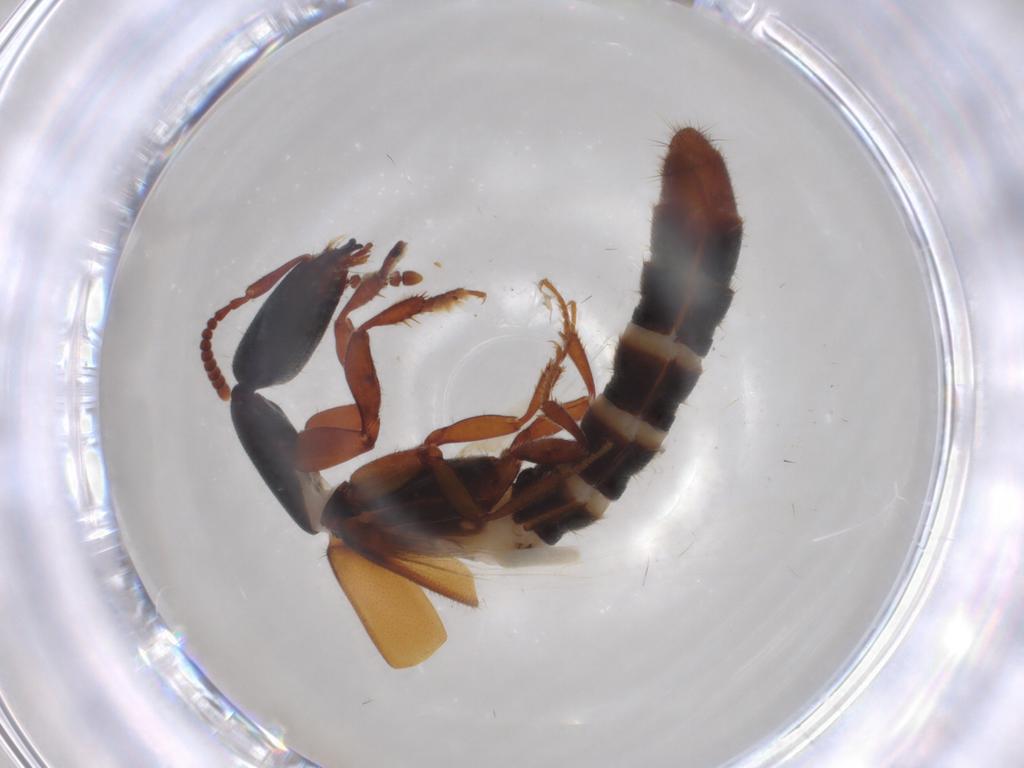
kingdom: Animalia
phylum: Arthropoda
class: Insecta
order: Coleoptera
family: Staphylinidae
